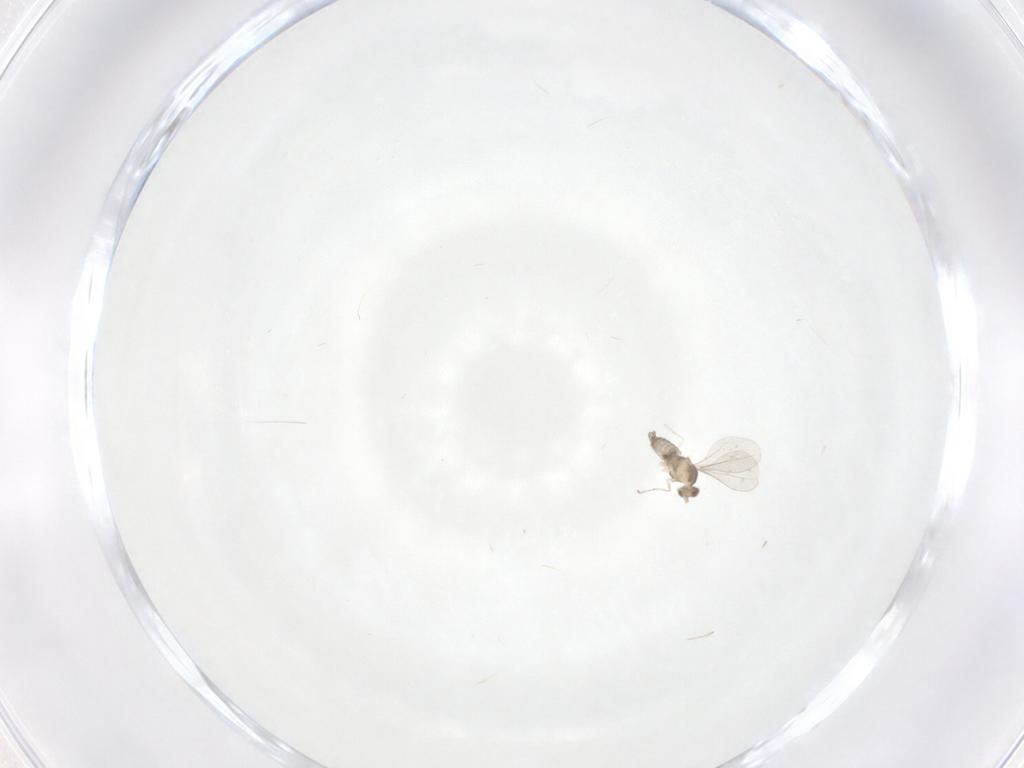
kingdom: Animalia
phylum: Arthropoda
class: Insecta
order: Diptera
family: Cecidomyiidae
